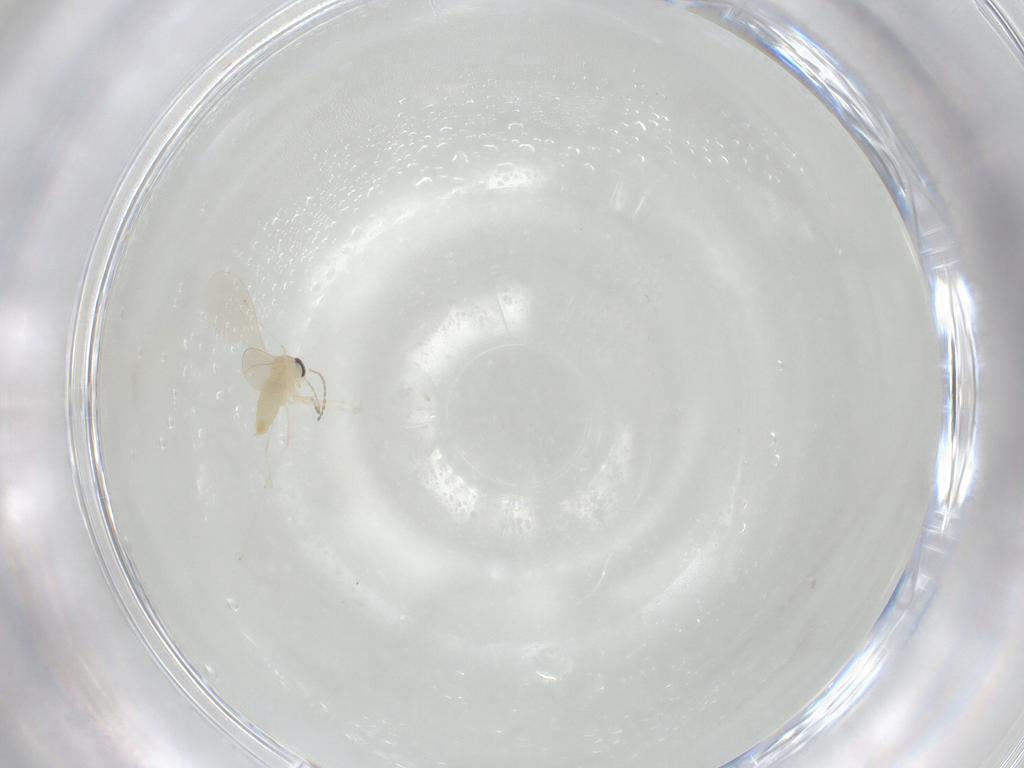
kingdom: Animalia
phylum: Arthropoda
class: Insecta
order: Diptera
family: Cecidomyiidae
